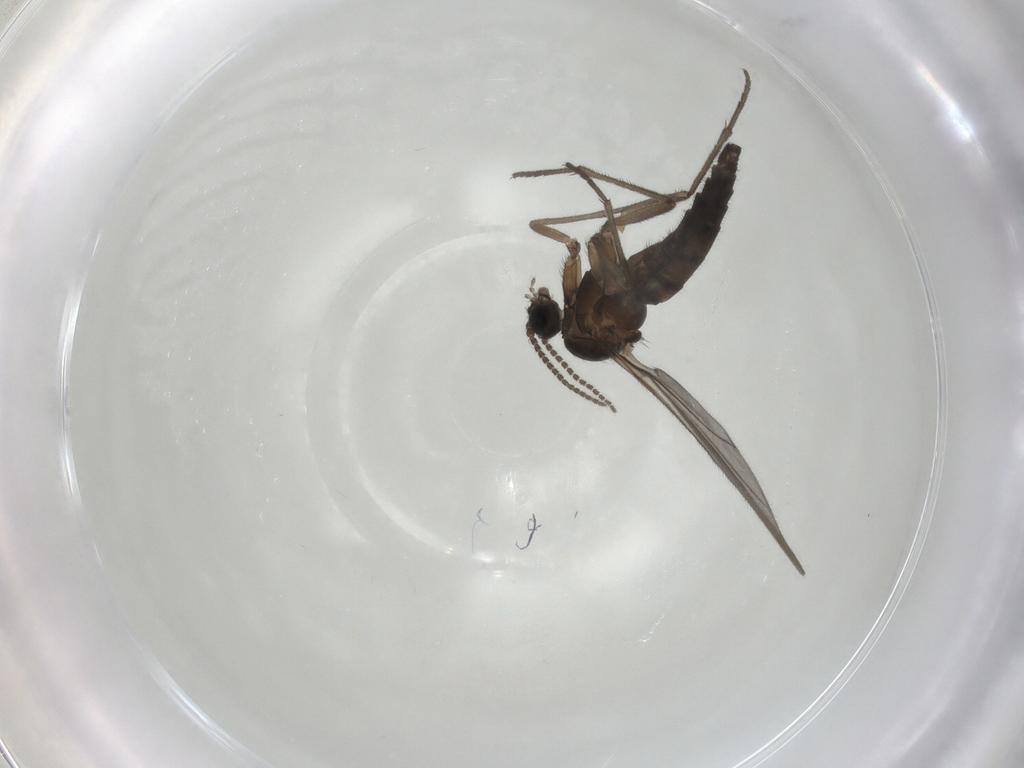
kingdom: Animalia
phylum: Arthropoda
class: Insecta
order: Diptera
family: Sciaridae
